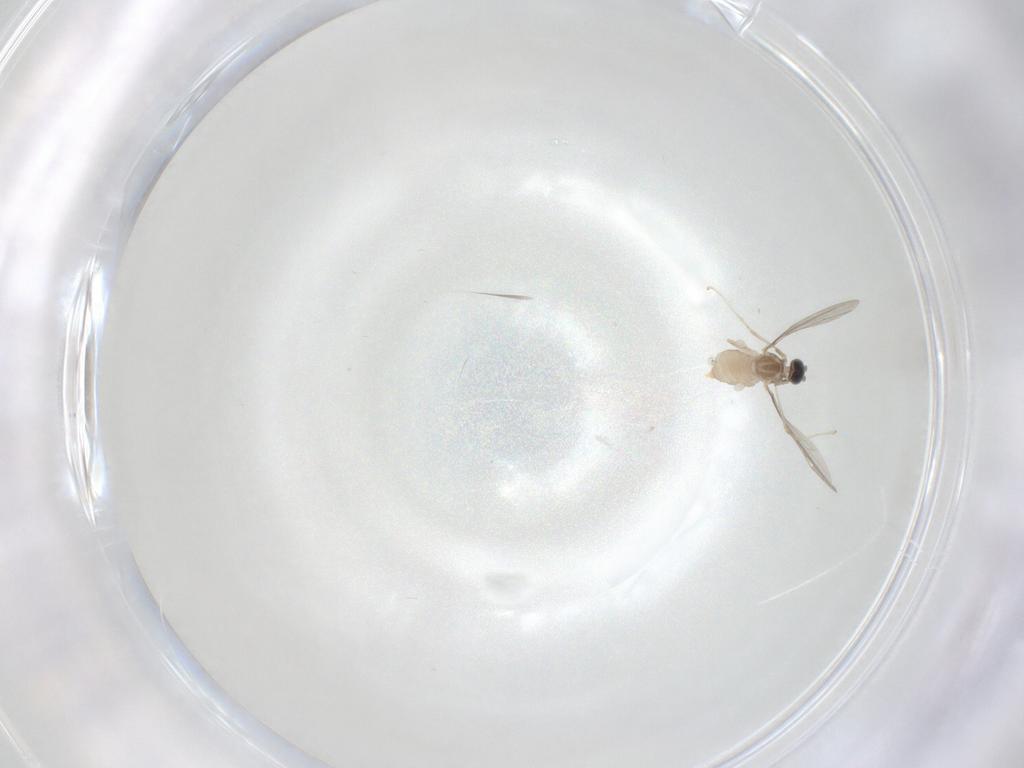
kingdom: Animalia
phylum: Arthropoda
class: Insecta
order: Diptera
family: Cecidomyiidae
